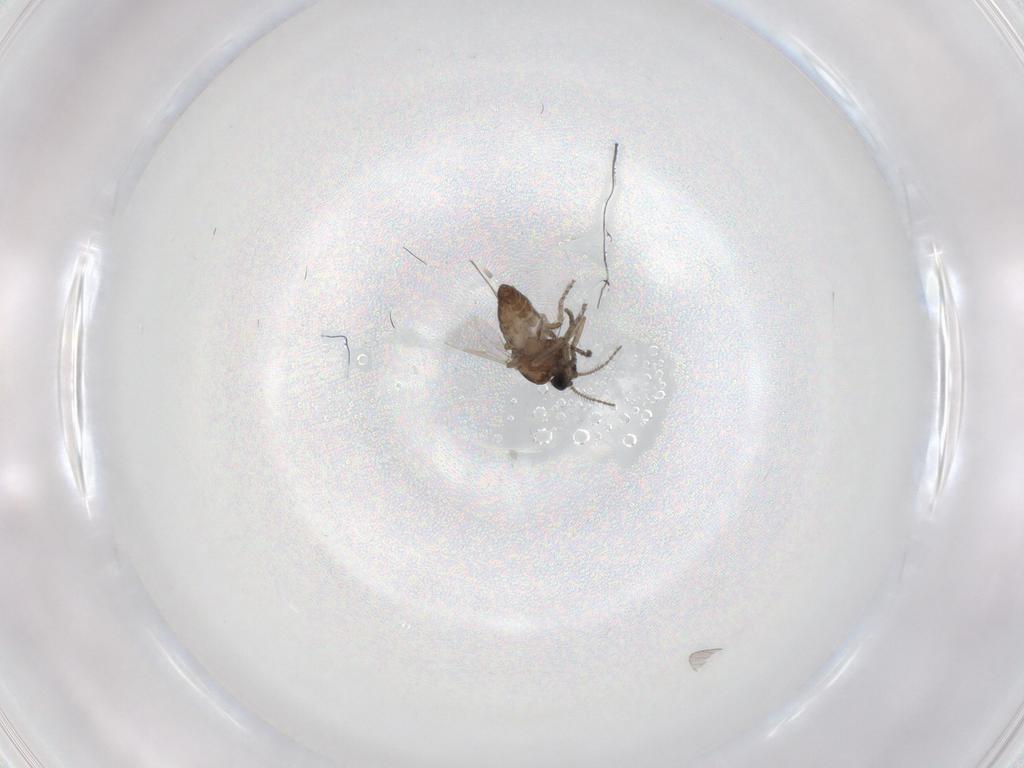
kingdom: Animalia
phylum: Arthropoda
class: Insecta
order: Diptera
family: Ceratopogonidae
